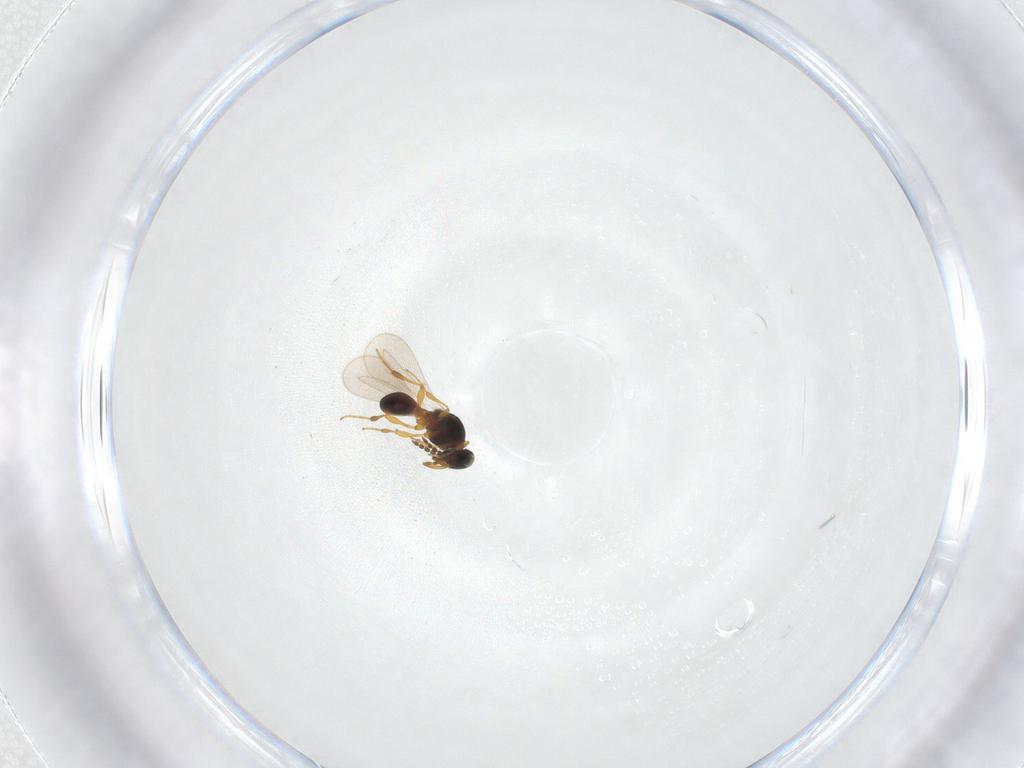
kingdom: Animalia
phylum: Arthropoda
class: Insecta
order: Hymenoptera
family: Platygastridae
